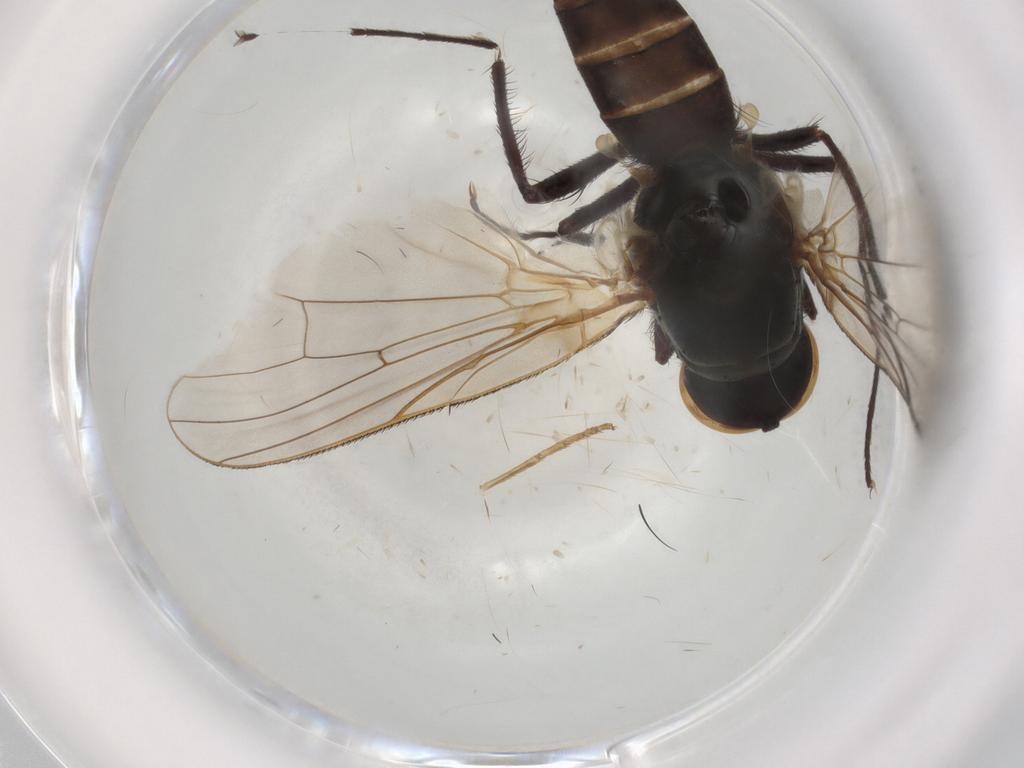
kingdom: Animalia
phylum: Arthropoda
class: Insecta
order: Diptera
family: Anthomyiidae
